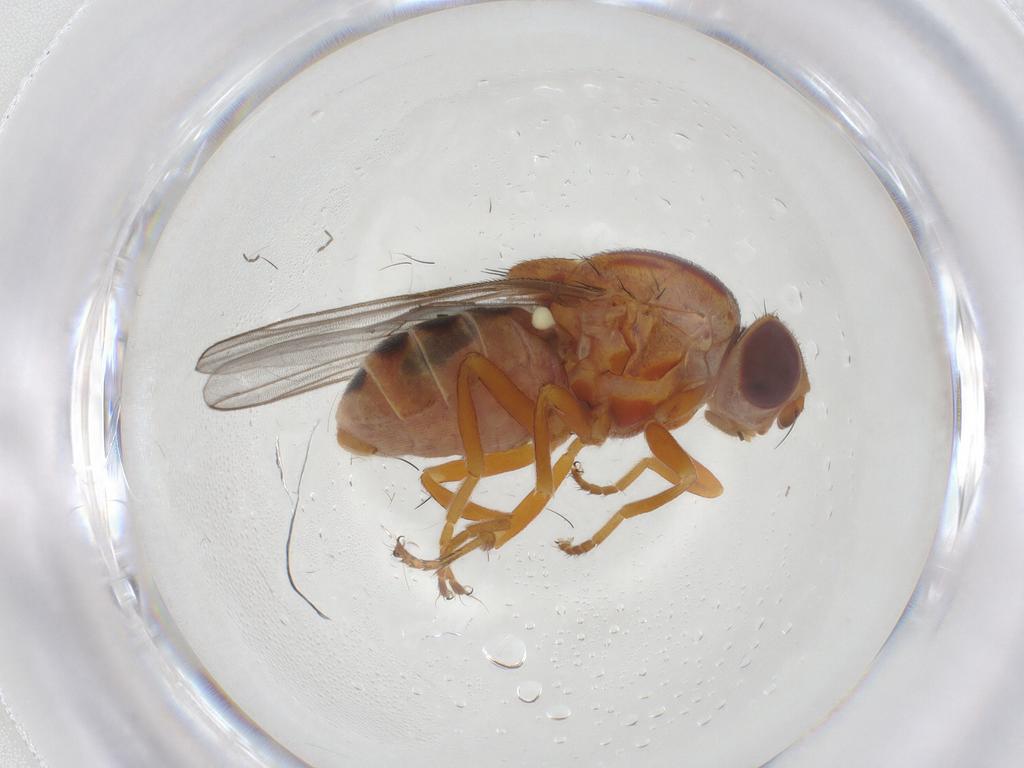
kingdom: Animalia
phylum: Arthropoda
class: Insecta
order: Diptera
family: Chloropidae
